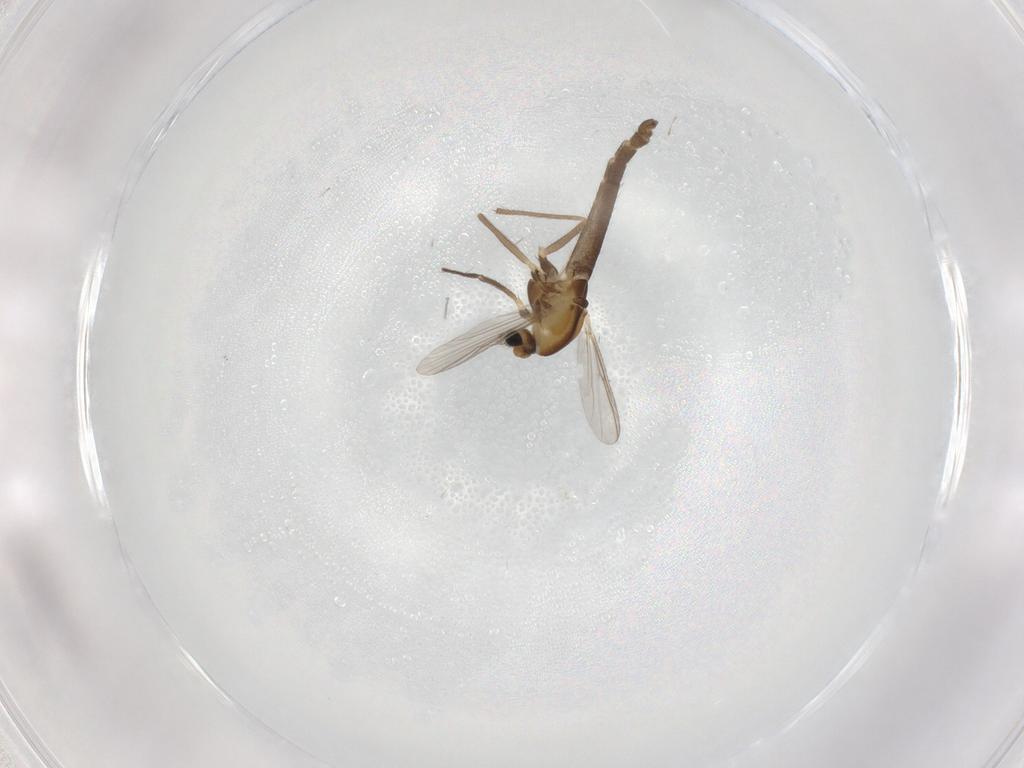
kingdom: Animalia
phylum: Arthropoda
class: Insecta
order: Diptera
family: Chironomidae
